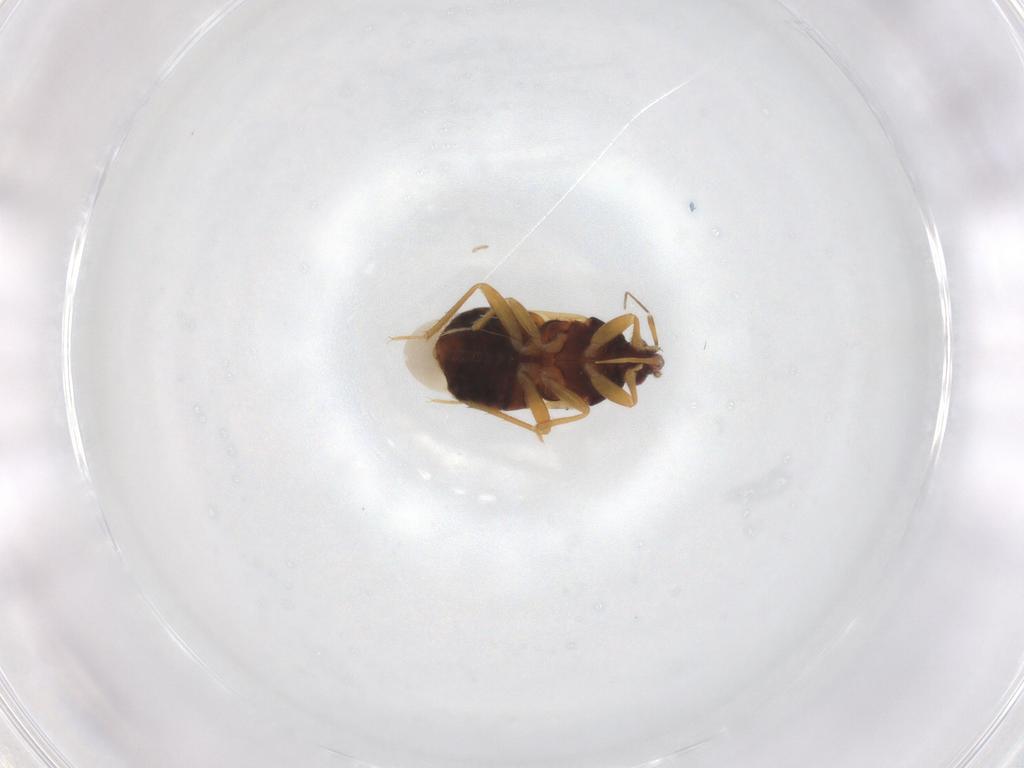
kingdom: Animalia
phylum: Arthropoda
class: Insecta
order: Hemiptera
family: Anthocoridae
